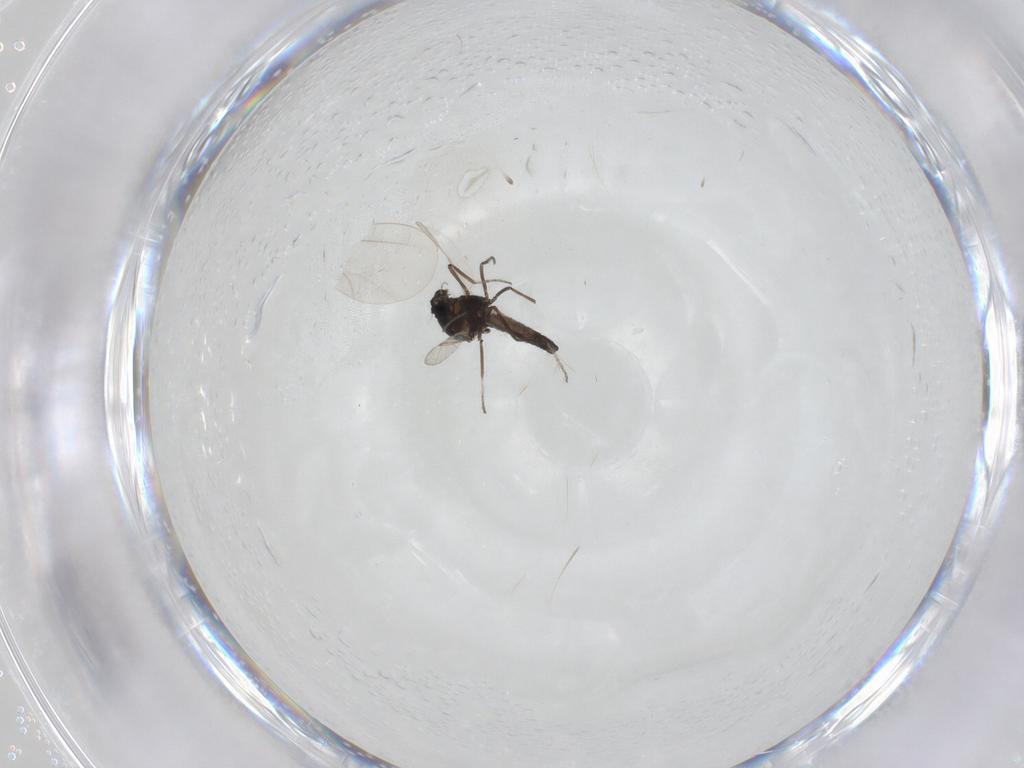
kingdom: Animalia
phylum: Arthropoda
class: Insecta
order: Diptera
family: Ceratopogonidae
